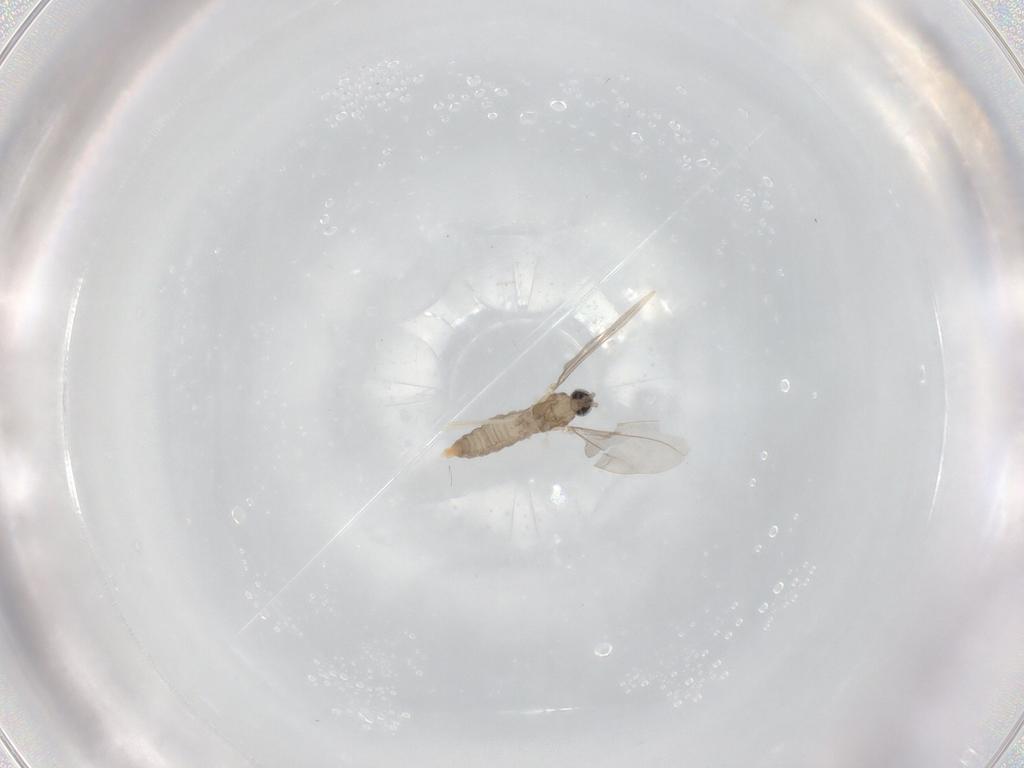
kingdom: Animalia
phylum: Arthropoda
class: Insecta
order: Diptera
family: Cecidomyiidae
